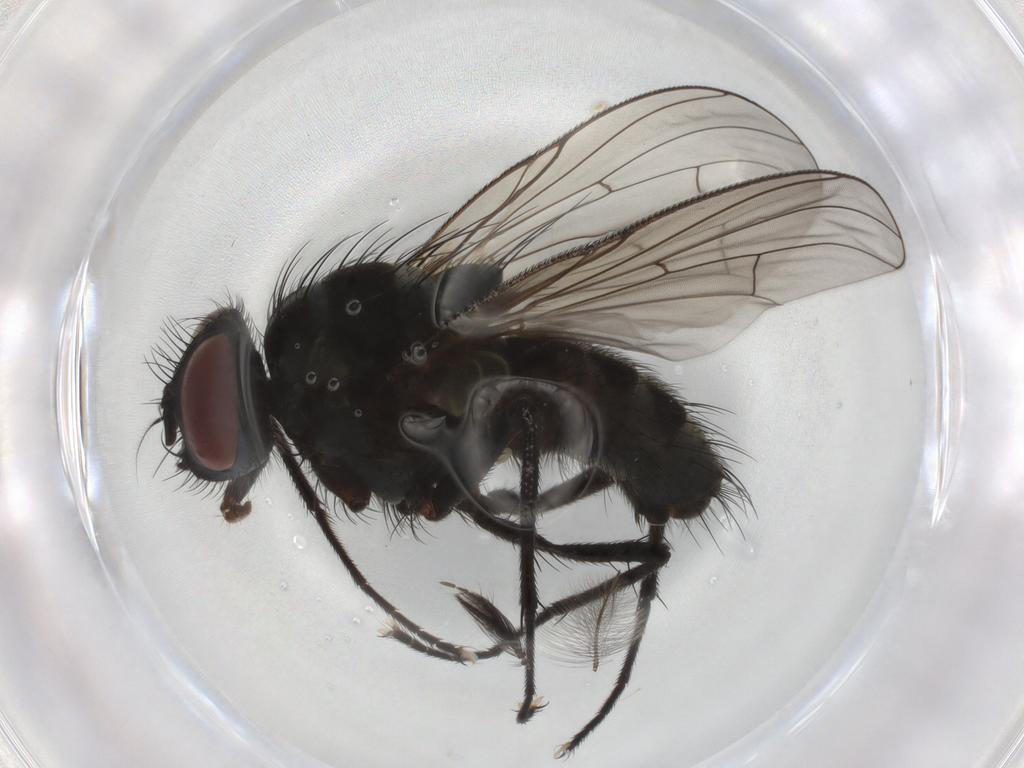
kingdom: Animalia
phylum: Arthropoda
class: Insecta
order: Diptera
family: Muscidae
